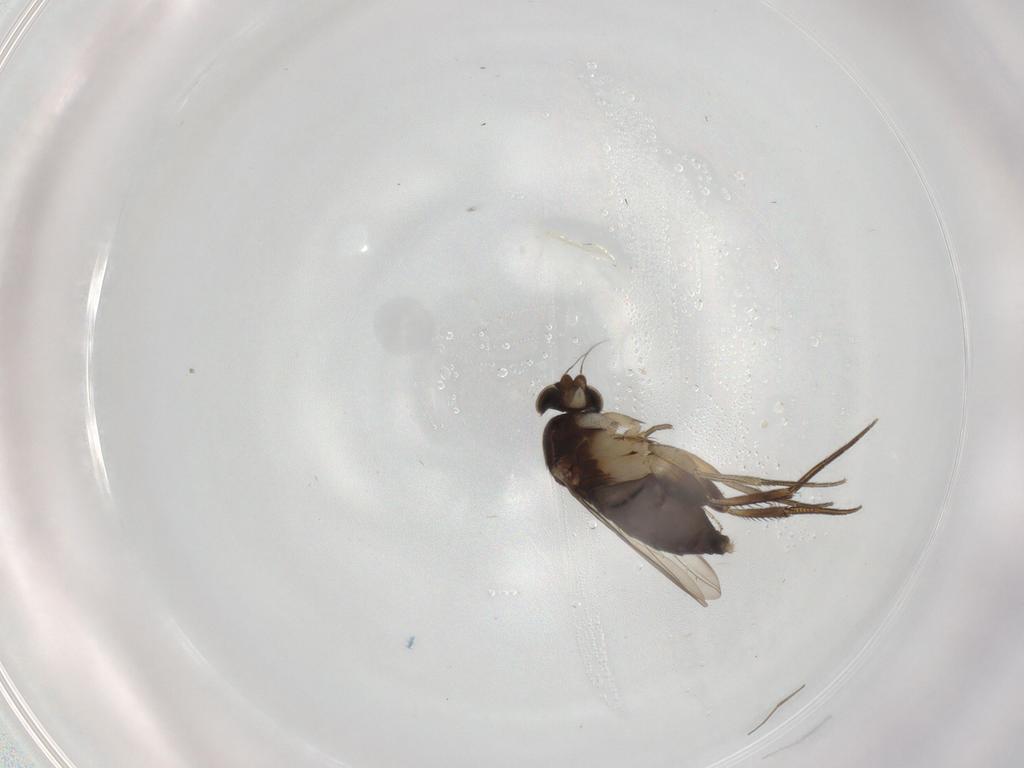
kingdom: Animalia
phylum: Arthropoda
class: Insecta
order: Diptera
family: Phoridae
